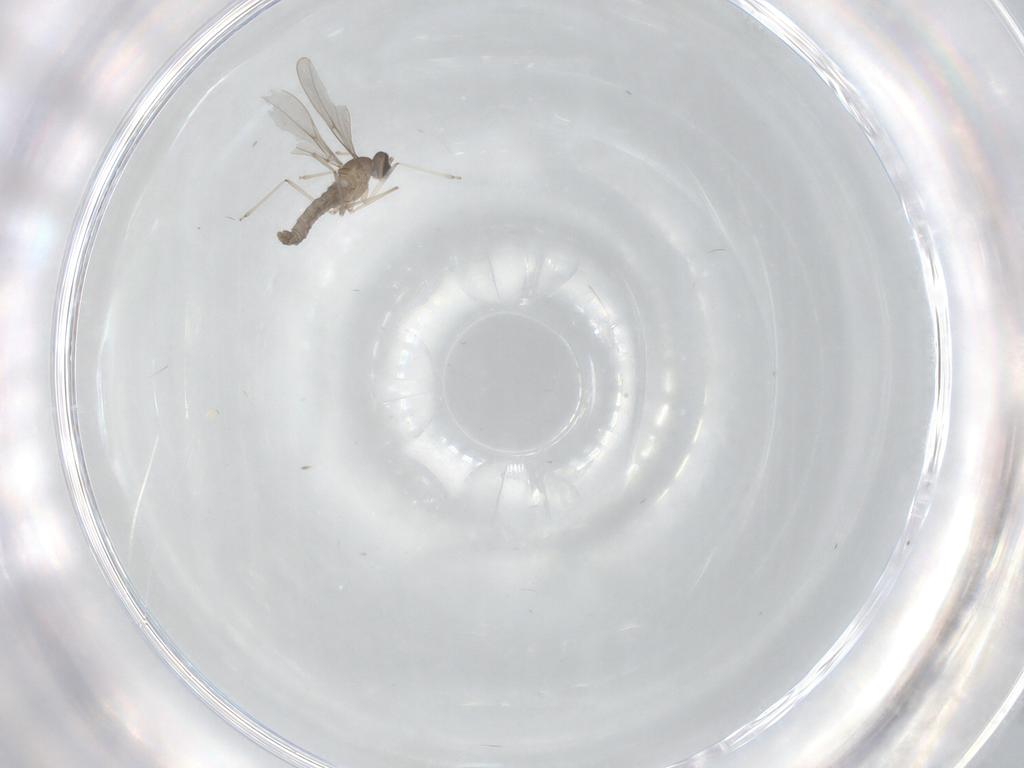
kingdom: Animalia
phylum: Arthropoda
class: Insecta
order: Diptera
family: Cecidomyiidae
